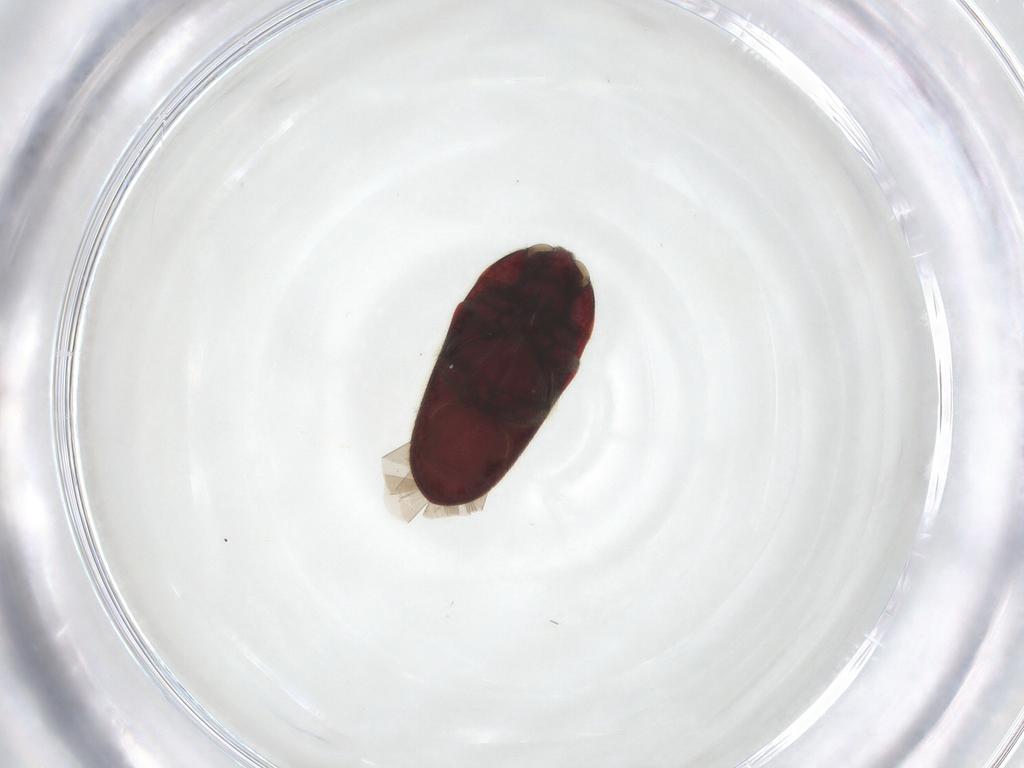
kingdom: Animalia
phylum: Arthropoda
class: Insecta
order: Coleoptera
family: Throscidae
